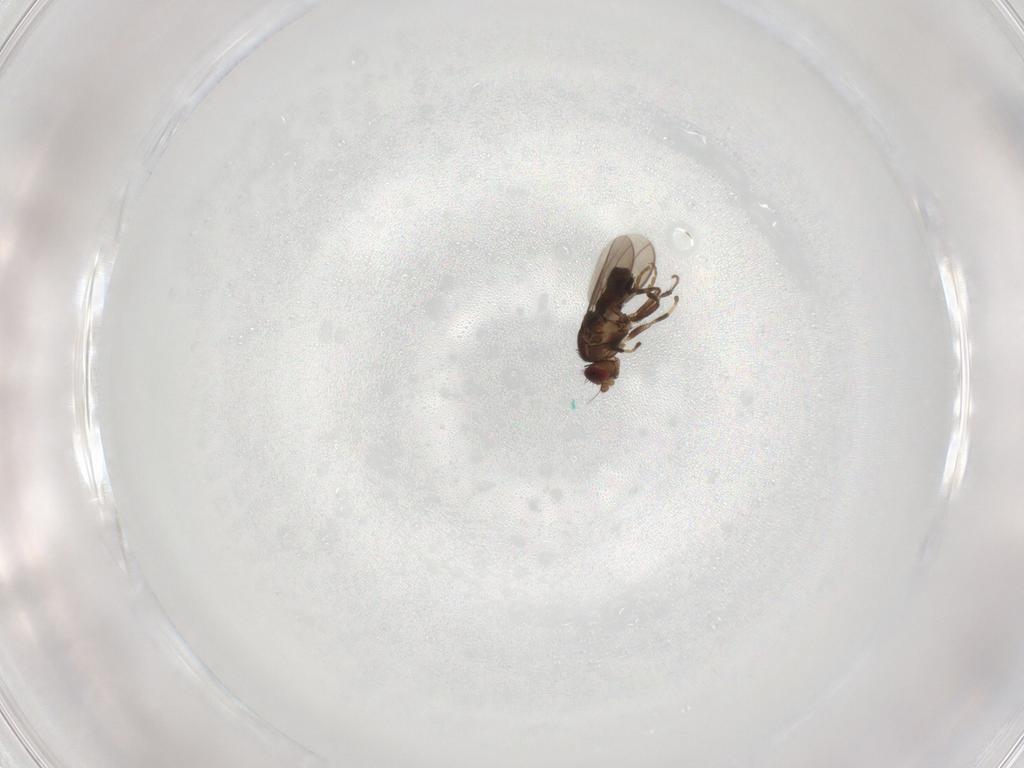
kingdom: Animalia
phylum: Arthropoda
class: Insecta
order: Diptera
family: Sphaeroceridae
